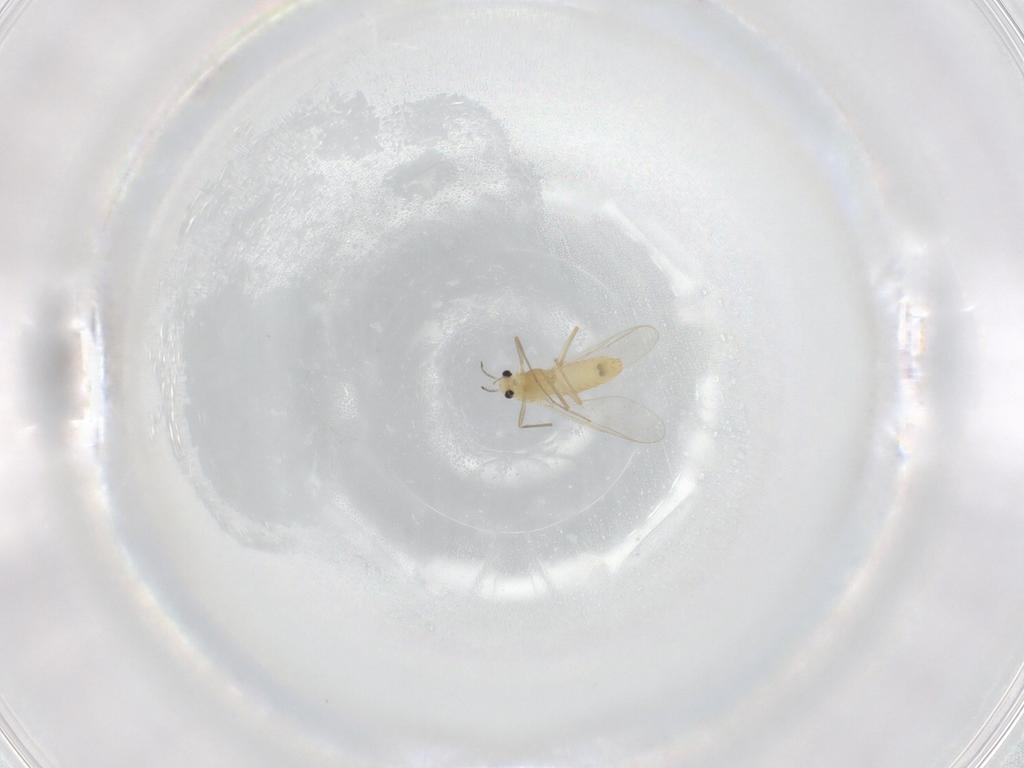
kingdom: Animalia
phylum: Arthropoda
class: Insecta
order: Diptera
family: Chironomidae
